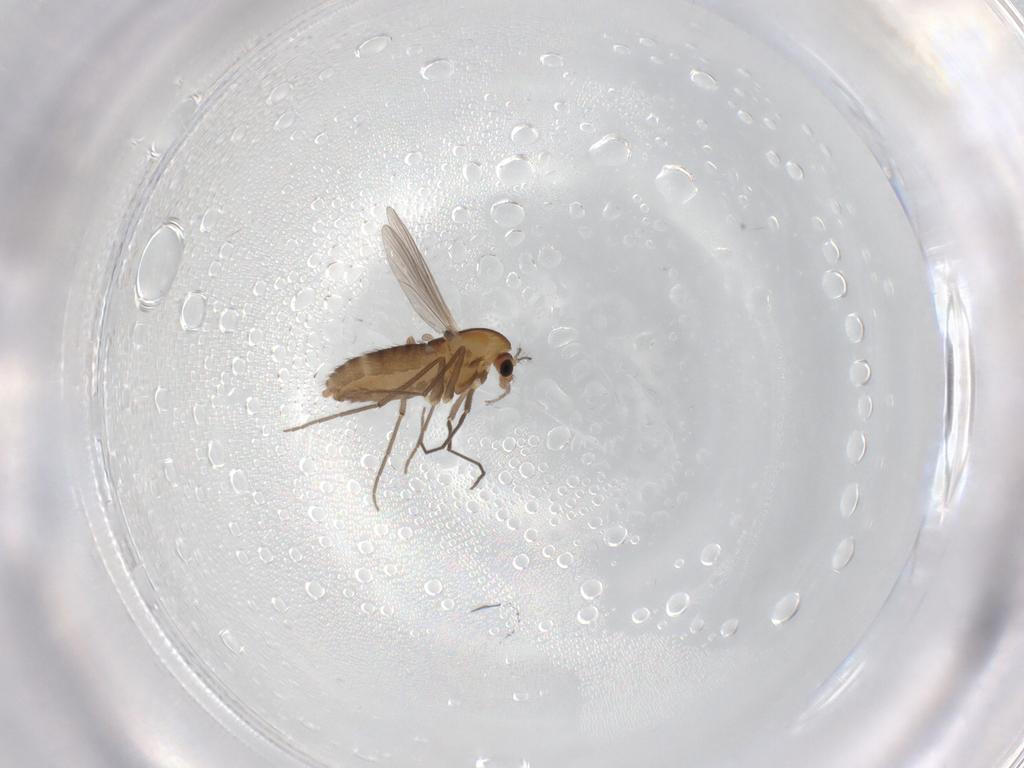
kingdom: Animalia
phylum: Arthropoda
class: Insecta
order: Diptera
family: Chironomidae
